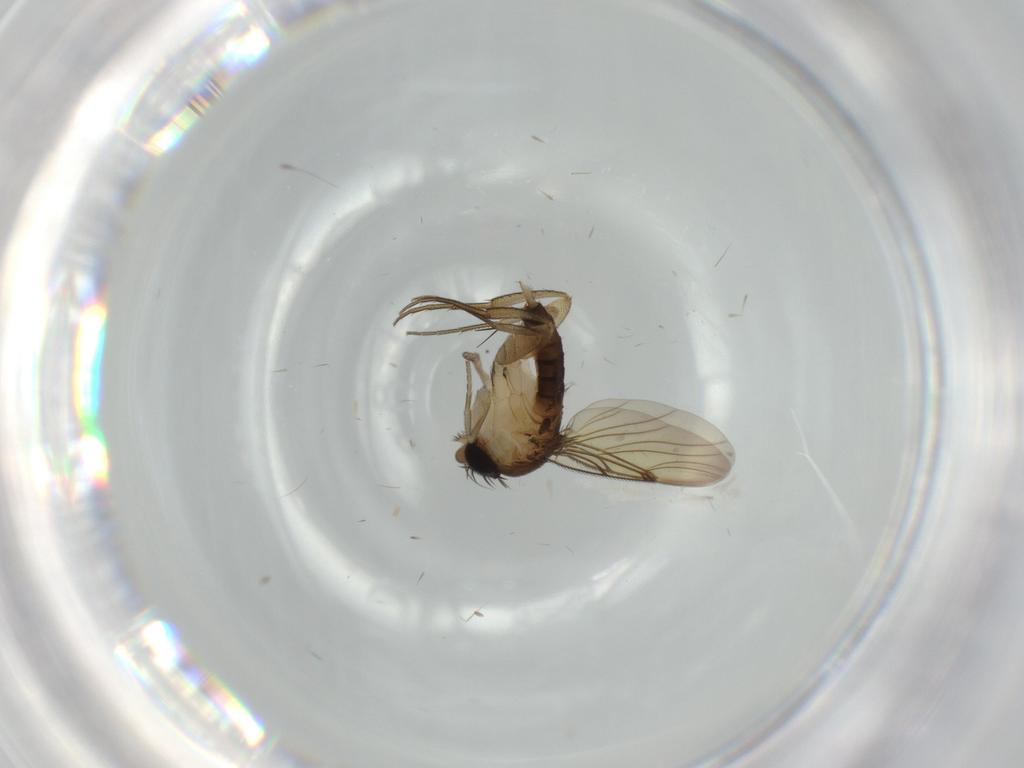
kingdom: Animalia
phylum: Arthropoda
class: Insecta
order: Diptera
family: Phoridae
